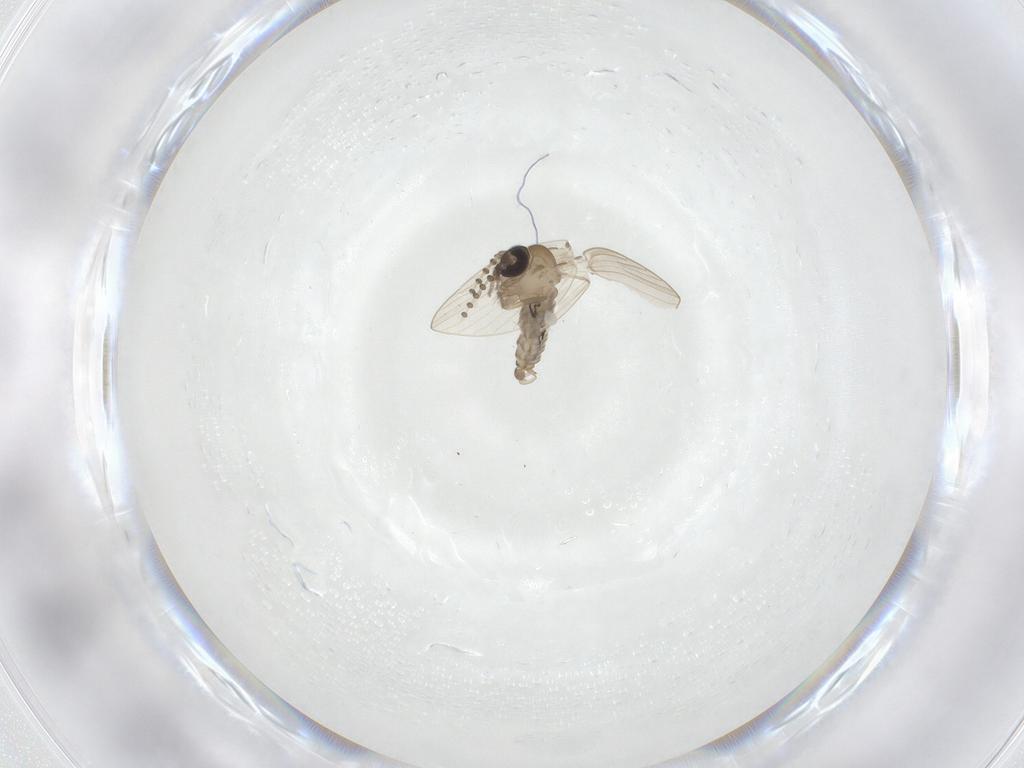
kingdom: Animalia
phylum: Arthropoda
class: Insecta
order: Diptera
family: Psychodidae
